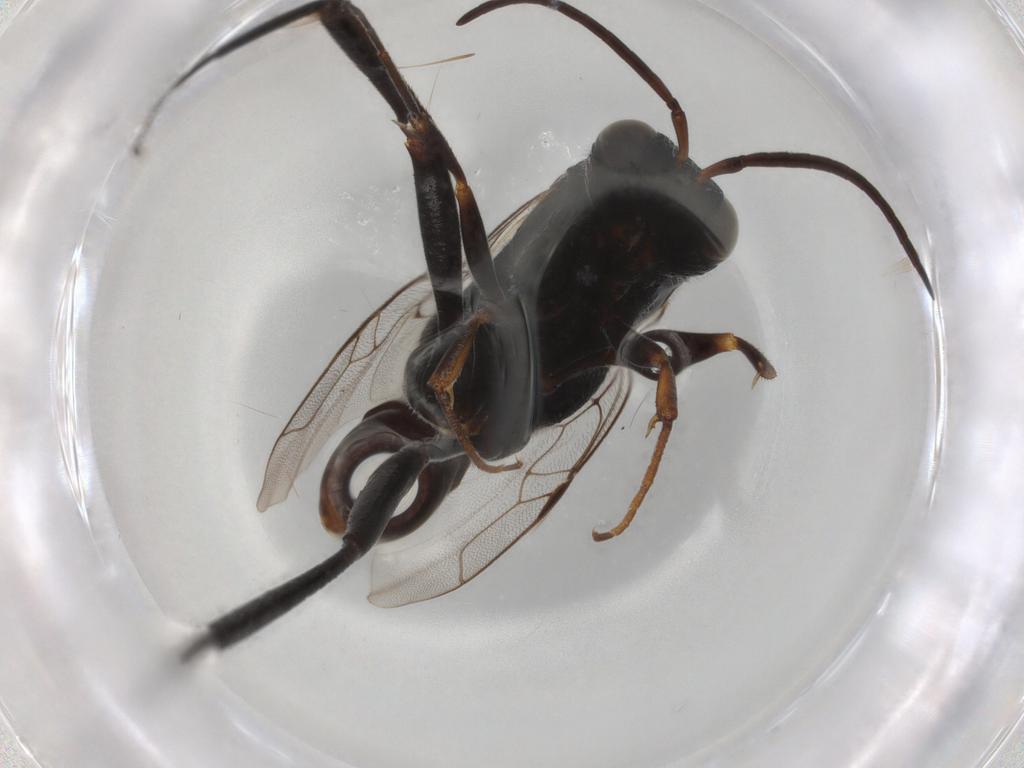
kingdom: Animalia
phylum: Arthropoda
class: Insecta
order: Hymenoptera
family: Evaniidae
